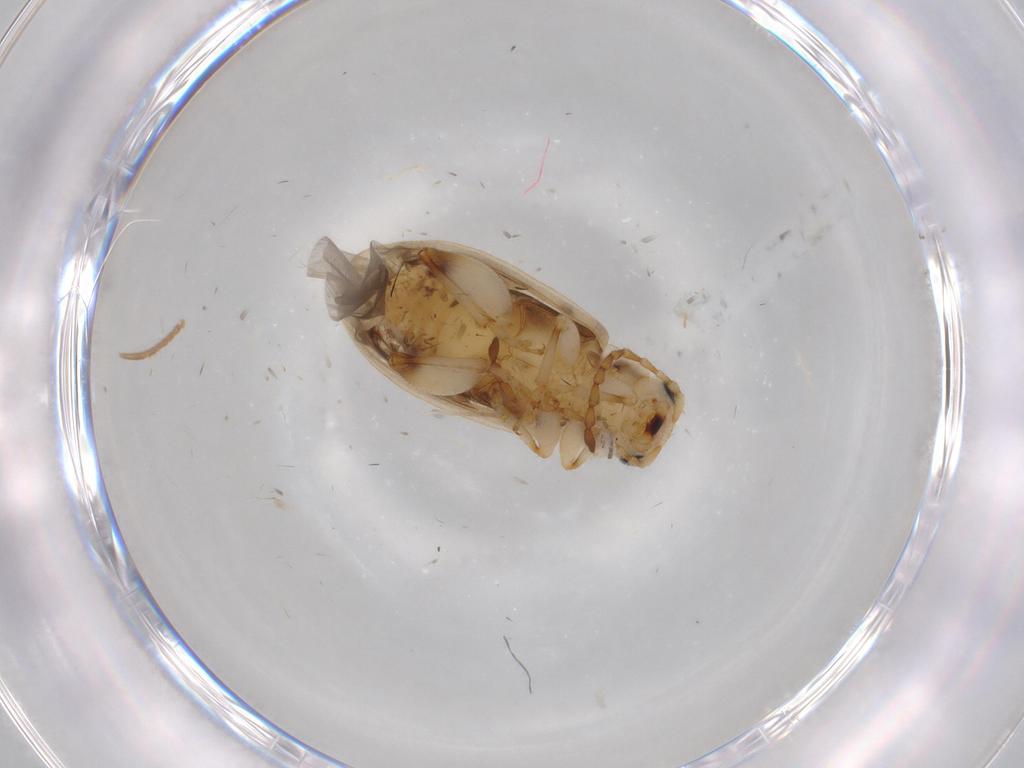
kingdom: Animalia
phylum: Arthropoda
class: Insecta
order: Coleoptera
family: Chrysomelidae
